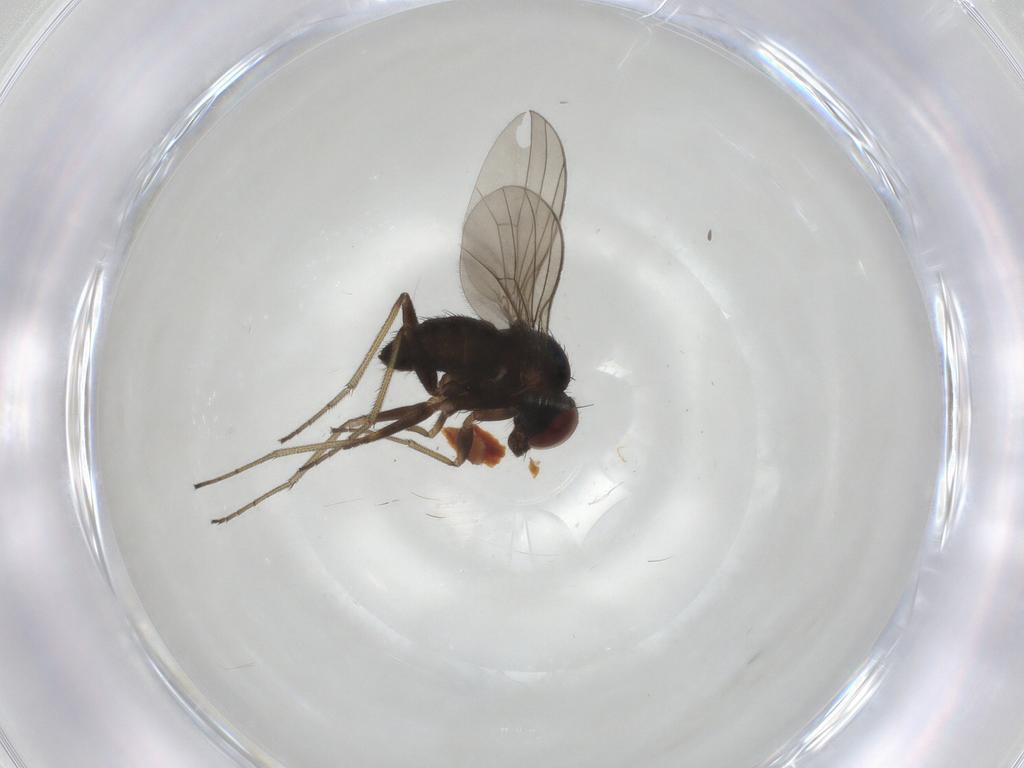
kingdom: Animalia
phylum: Arthropoda
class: Insecta
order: Diptera
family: Dolichopodidae
